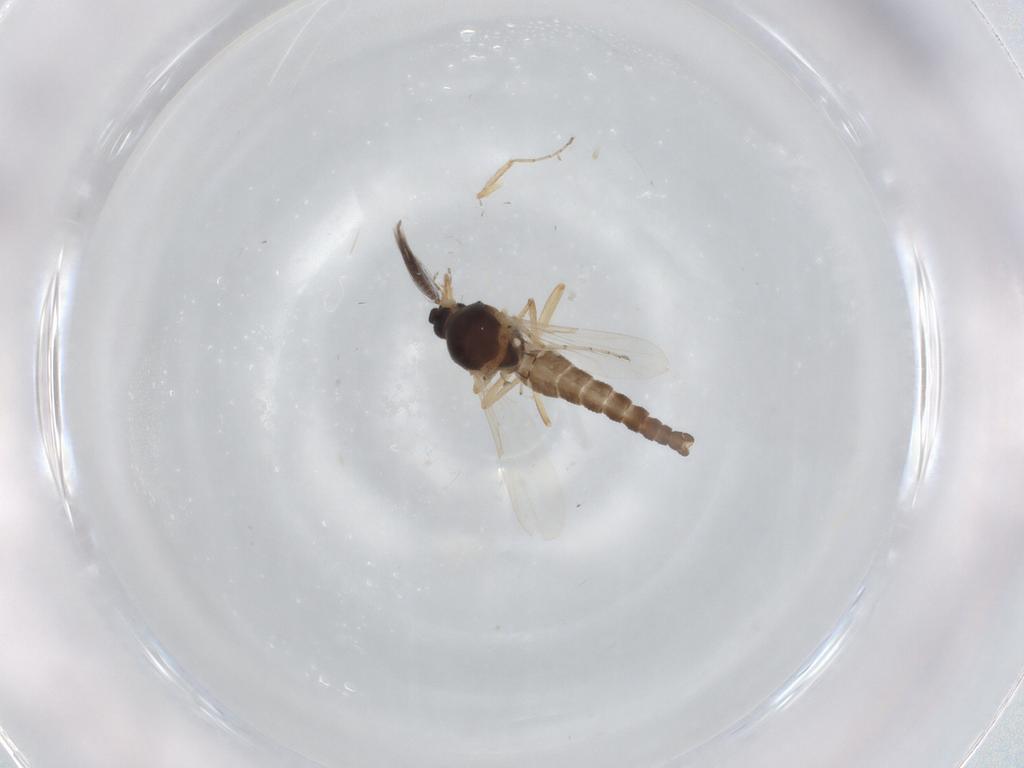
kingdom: Animalia
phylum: Arthropoda
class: Insecta
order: Diptera
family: Ceratopogonidae
